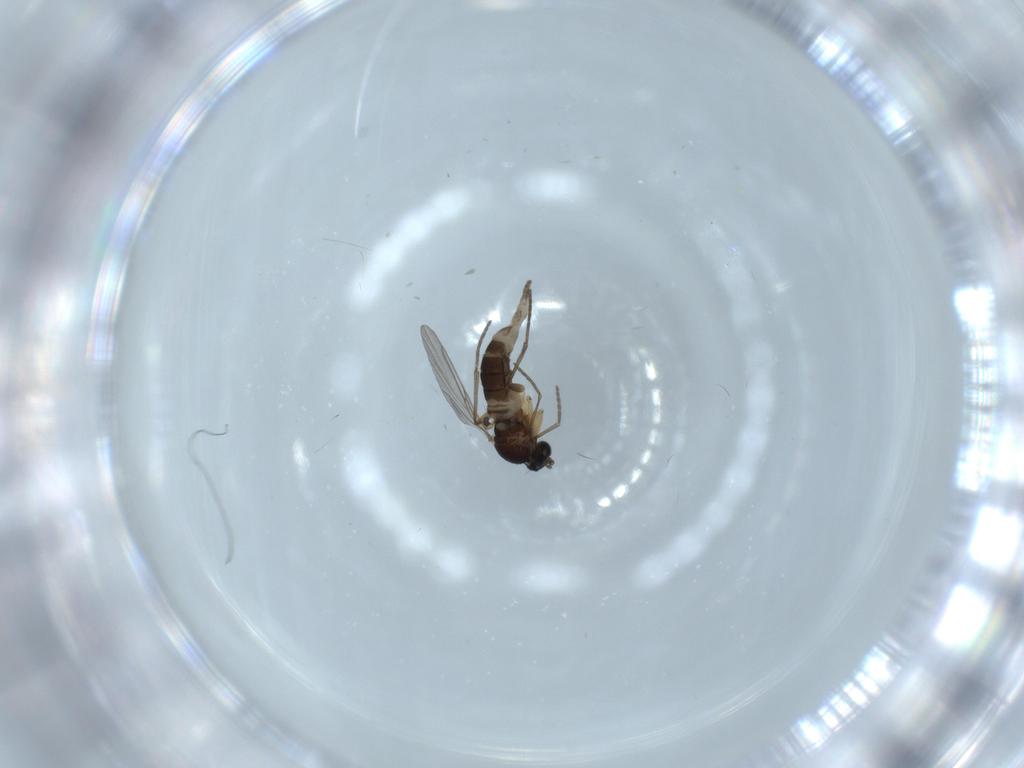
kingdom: Animalia
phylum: Arthropoda
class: Insecta
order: Diptera
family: Sciaridae
